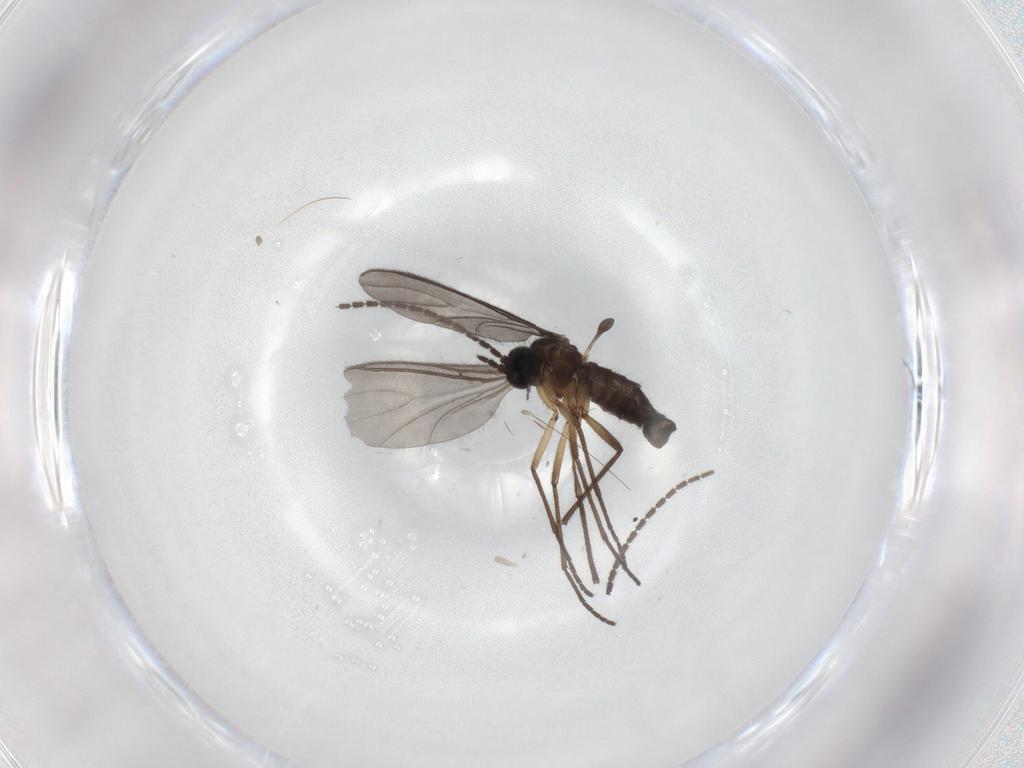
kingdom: Animalia
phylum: Arthropoda
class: Insecta
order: Diptera
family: Sciaridae
